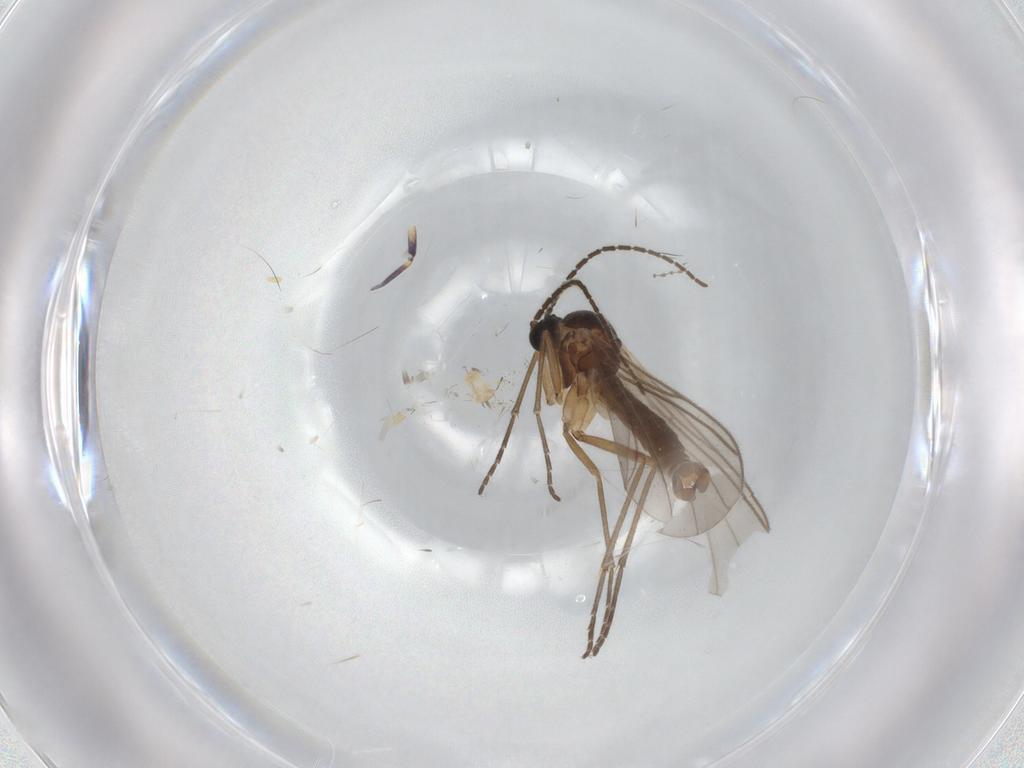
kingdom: Animalia
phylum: Arthropoda
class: Insecta
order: Diptera
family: Sciaridae
